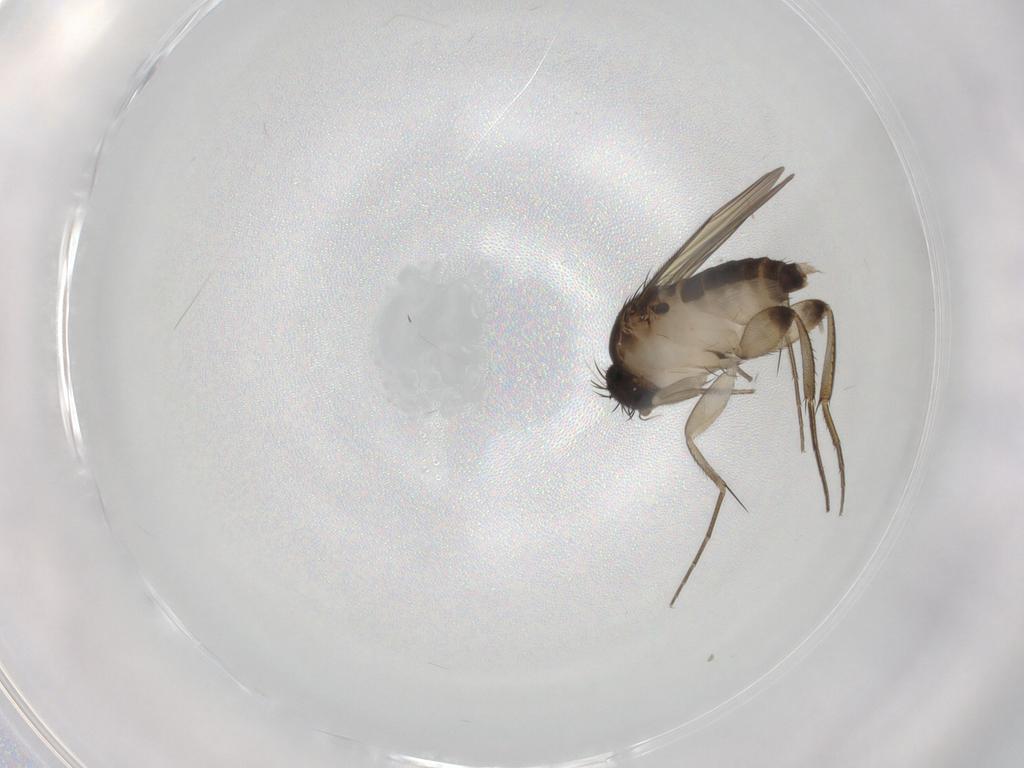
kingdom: Animalia
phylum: Arthropoda
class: Insecta
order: Diptera
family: Phoridae
